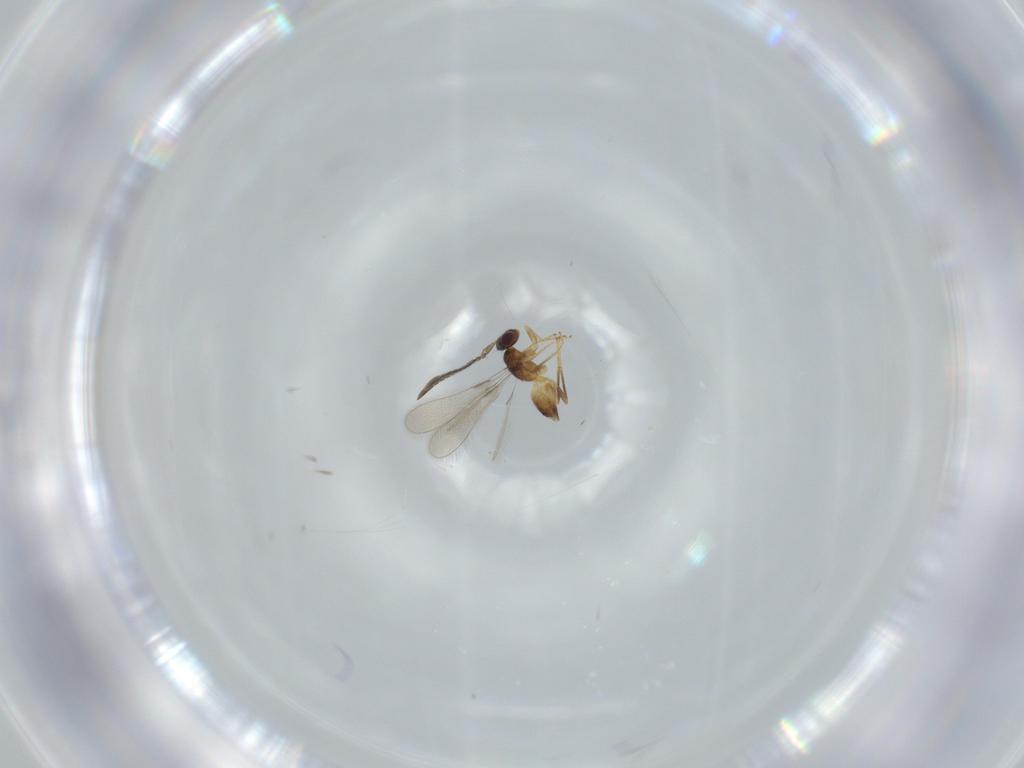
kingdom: Animalia
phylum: Arthropoda
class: Insecta
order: Hymenoptera
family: Mymaridae
